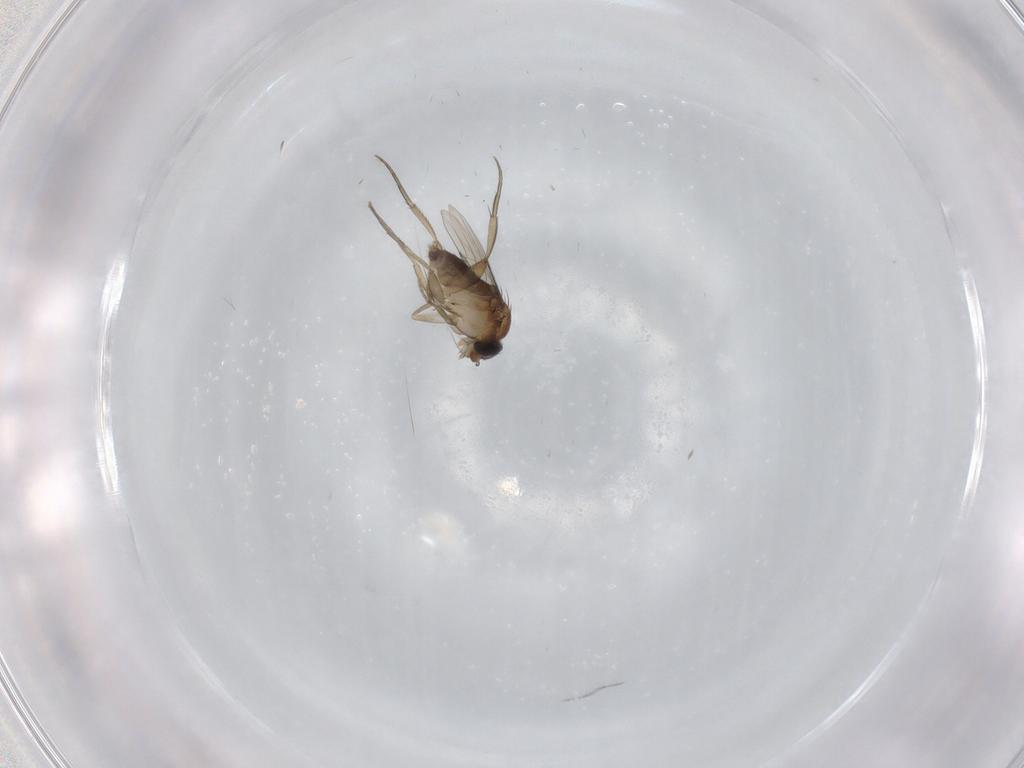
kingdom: Animalia
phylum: Arthropoda
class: Insecta
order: Diptera
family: Phoridae
